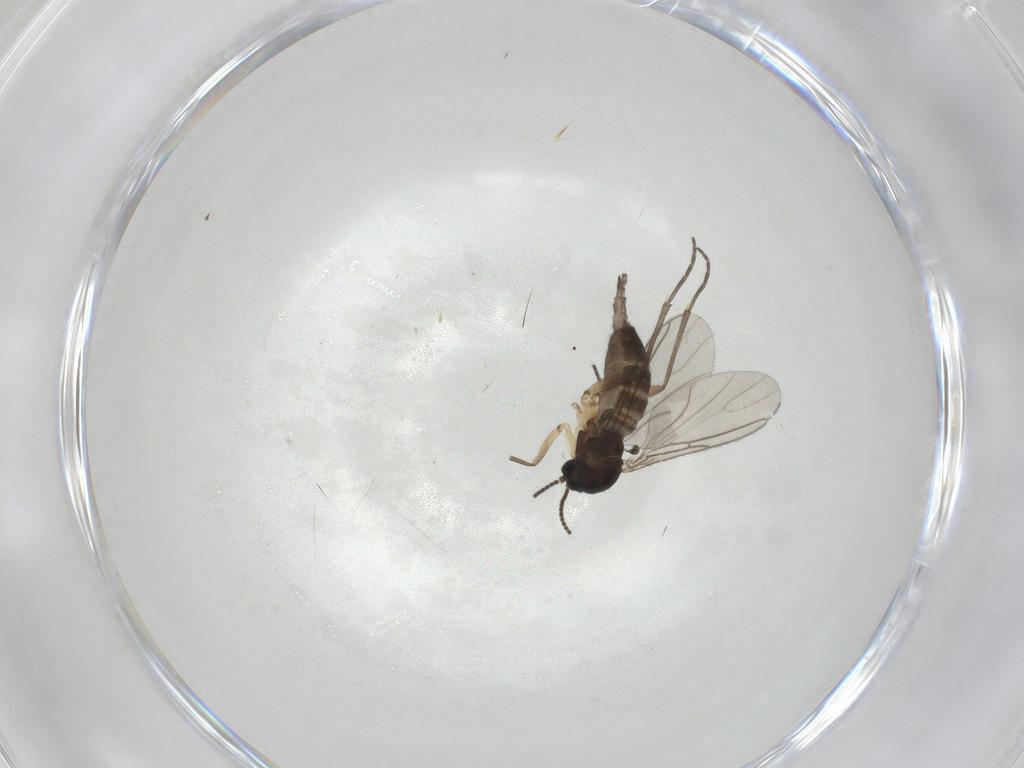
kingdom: Animalia
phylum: Arthropoda
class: Insecta
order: Diptera
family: Sciaridae
